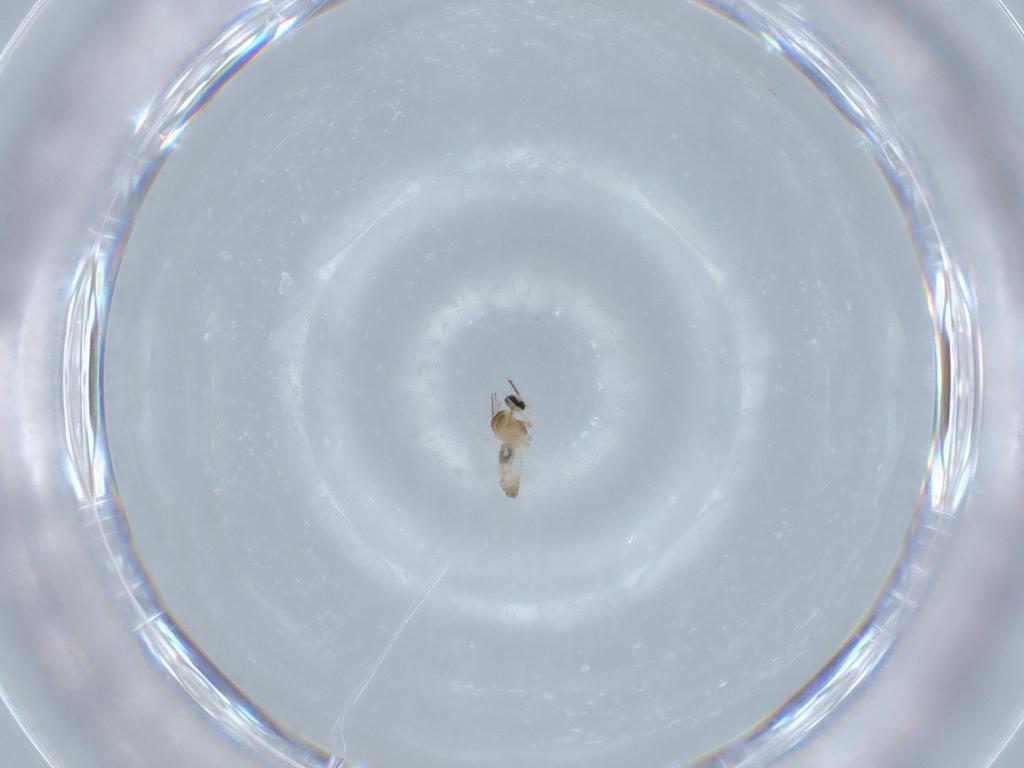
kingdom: Animalia
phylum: Arthropoda
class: Insecta
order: Diptera
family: Cecidomyiidae
